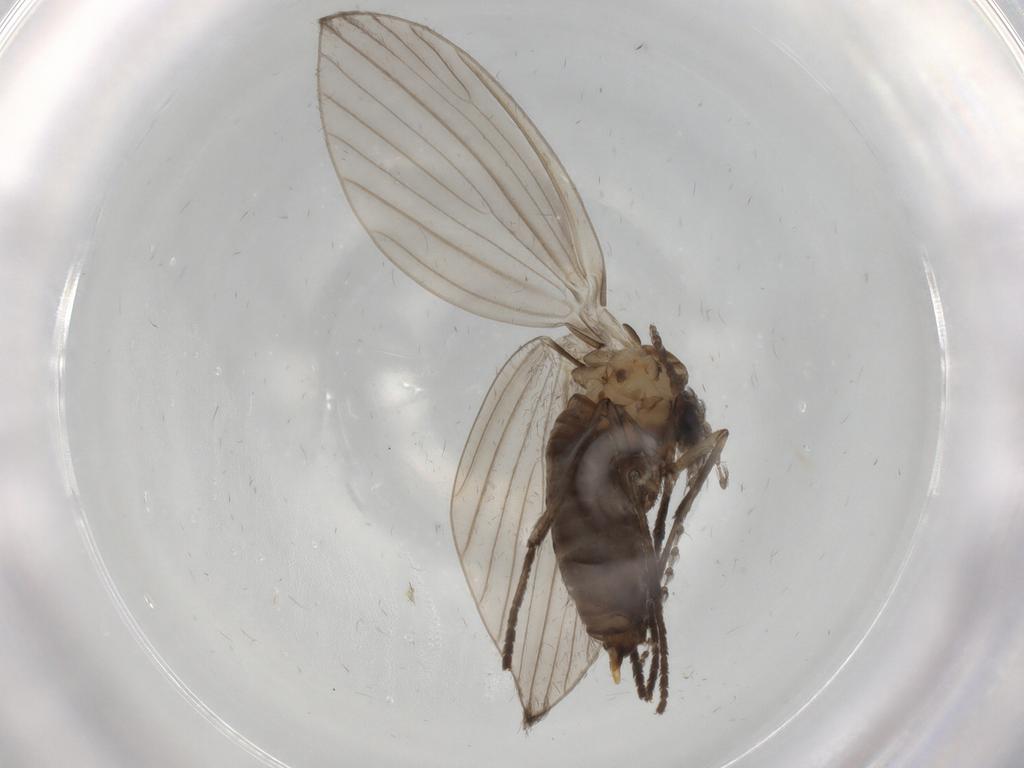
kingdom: Animalia
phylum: Arthropoda
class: Insecta
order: Diptera
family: Psychodidae
